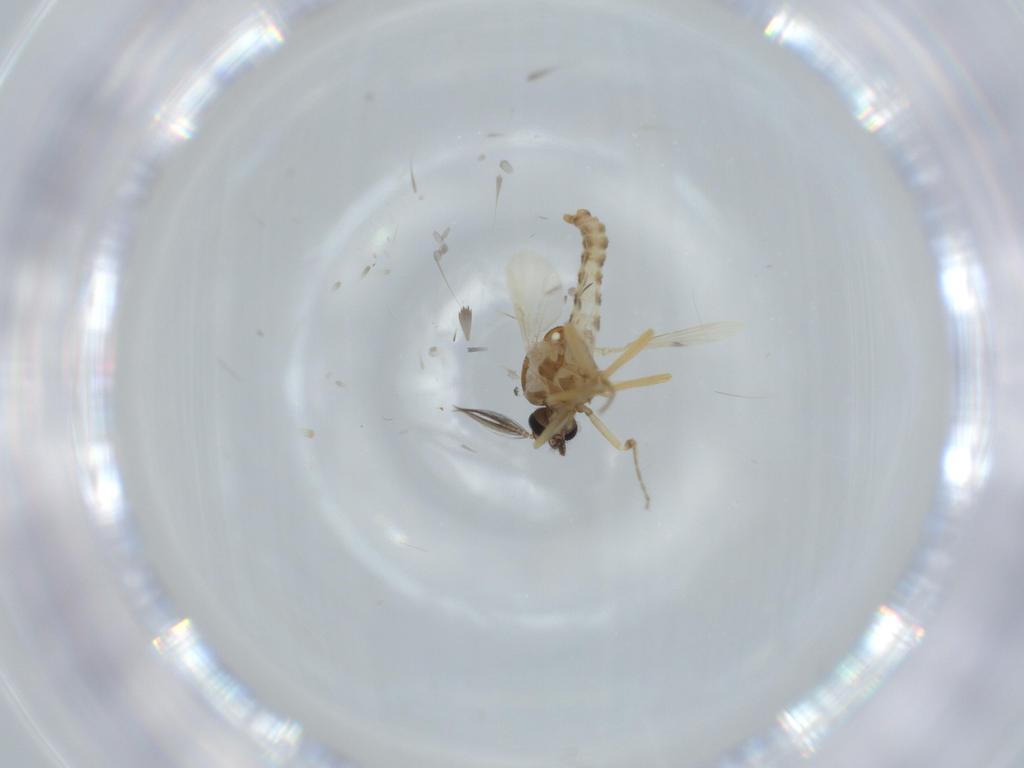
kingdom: Animalia
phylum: Arthropoda
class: Insecta
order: Diptera
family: Ceratopogonidae
